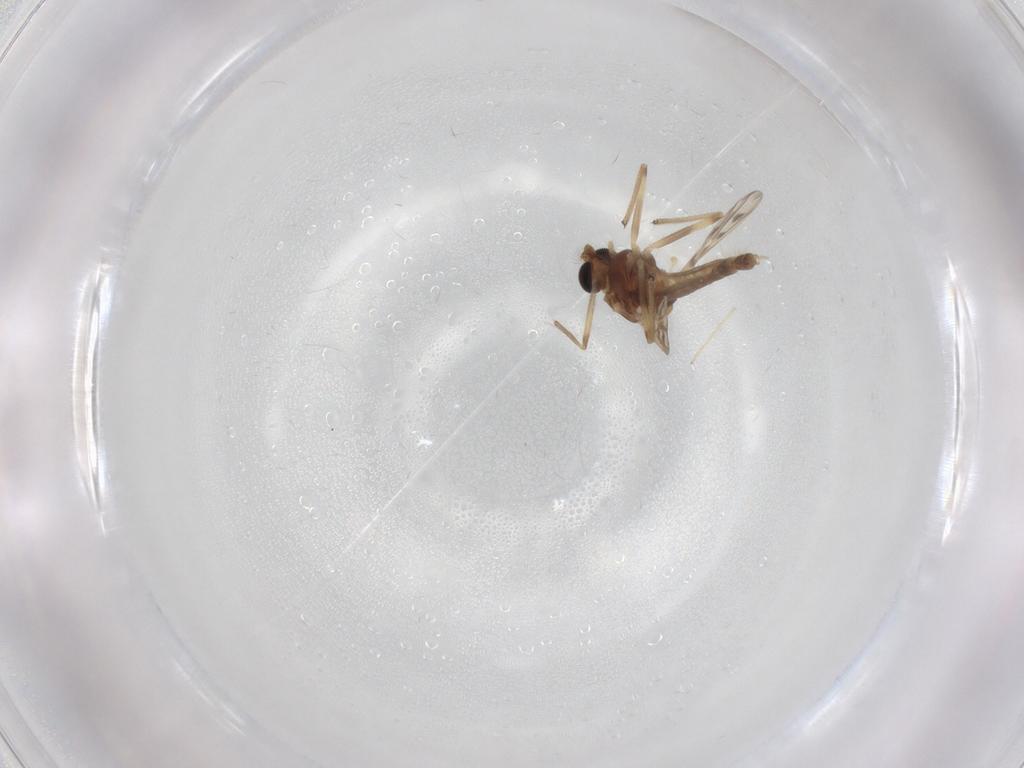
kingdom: Animalia
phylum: Arthropoda
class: Insecta
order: Diptera
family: Chironomidae
